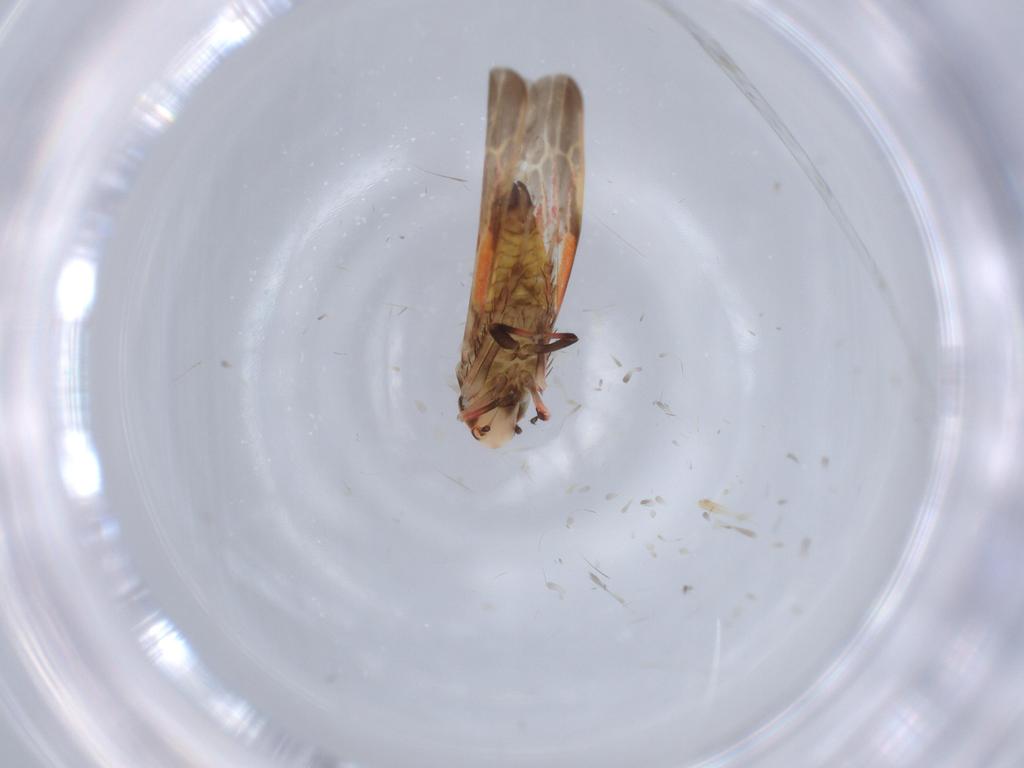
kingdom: Animalia
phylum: Arthropoda
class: Insecta
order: Hemiptera
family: Cicadellidae
